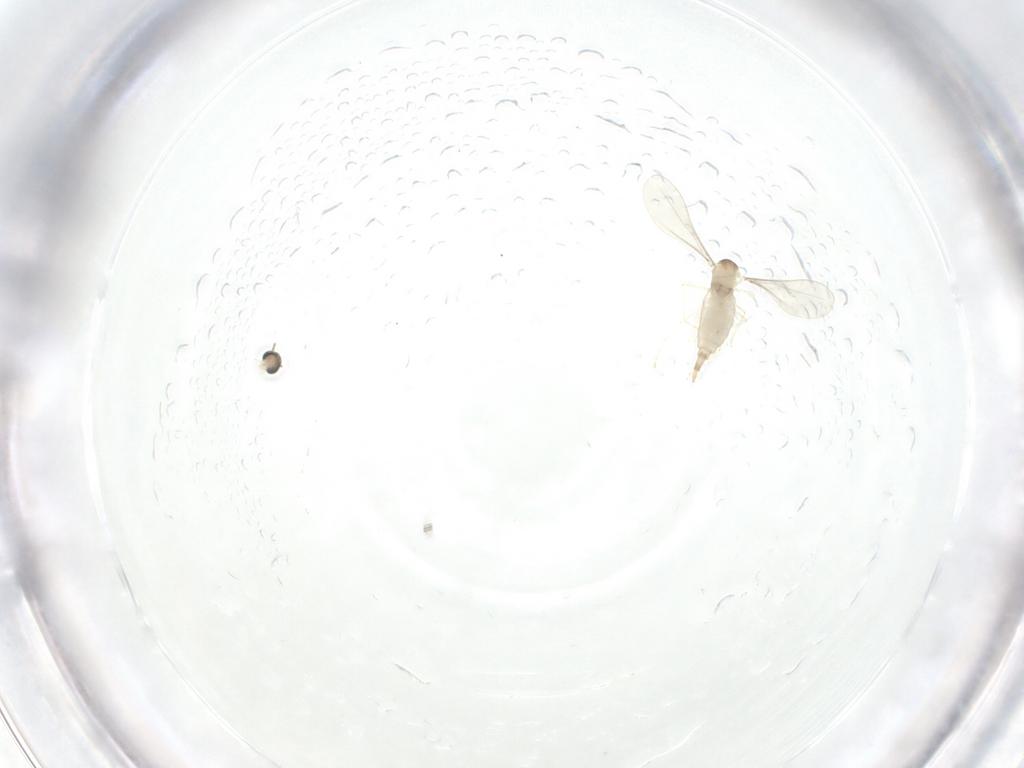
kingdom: Animalia
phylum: Arthropoda
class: Insecta
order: Diptera
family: Cecidomyiidae
